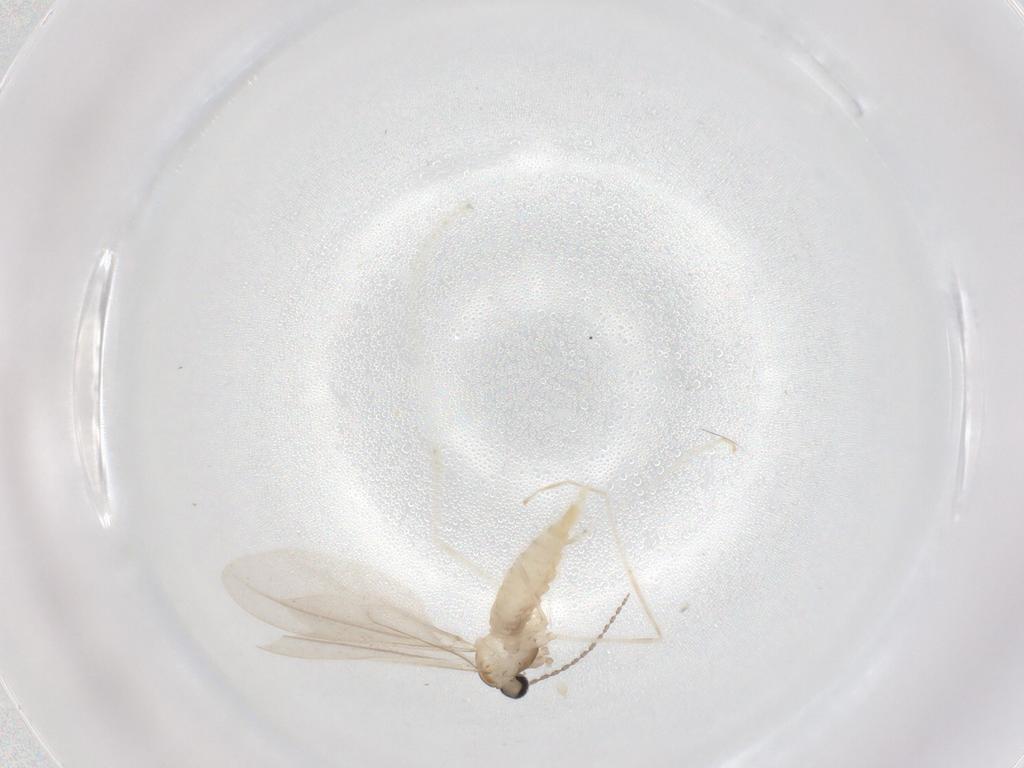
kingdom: Animalia
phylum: Arthropoda
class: Insecta
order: Diptera
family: Cecidomyiidae
